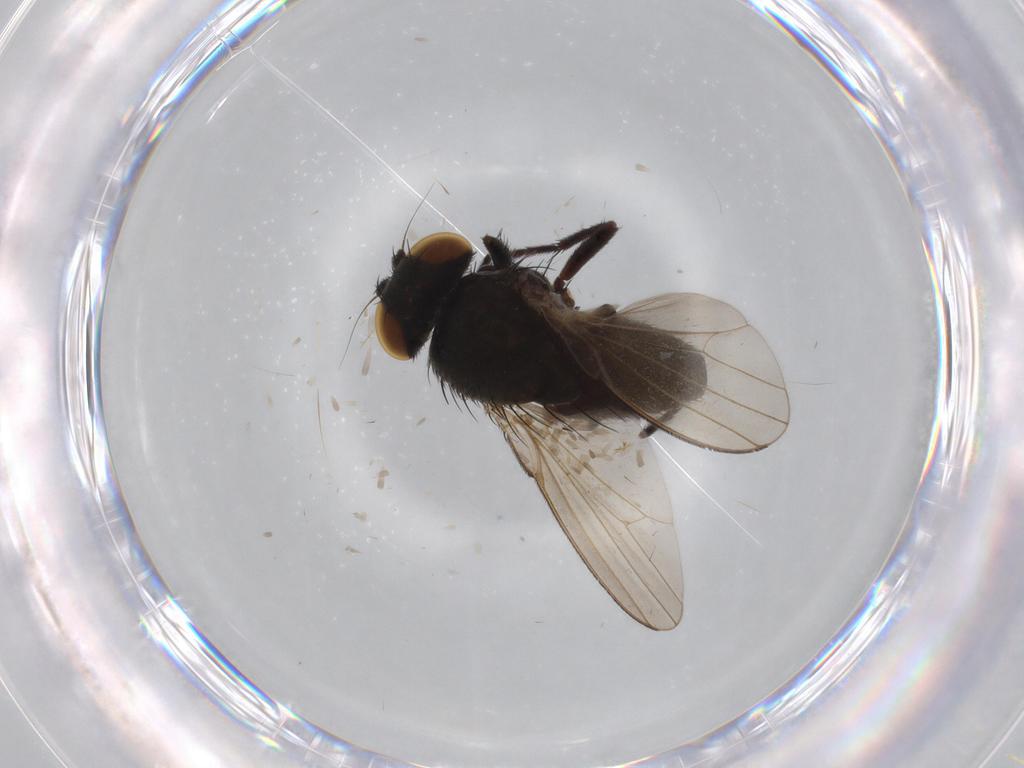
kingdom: Animalia
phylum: Arthropoda
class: Insecta
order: Diptera
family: Milichiidae
